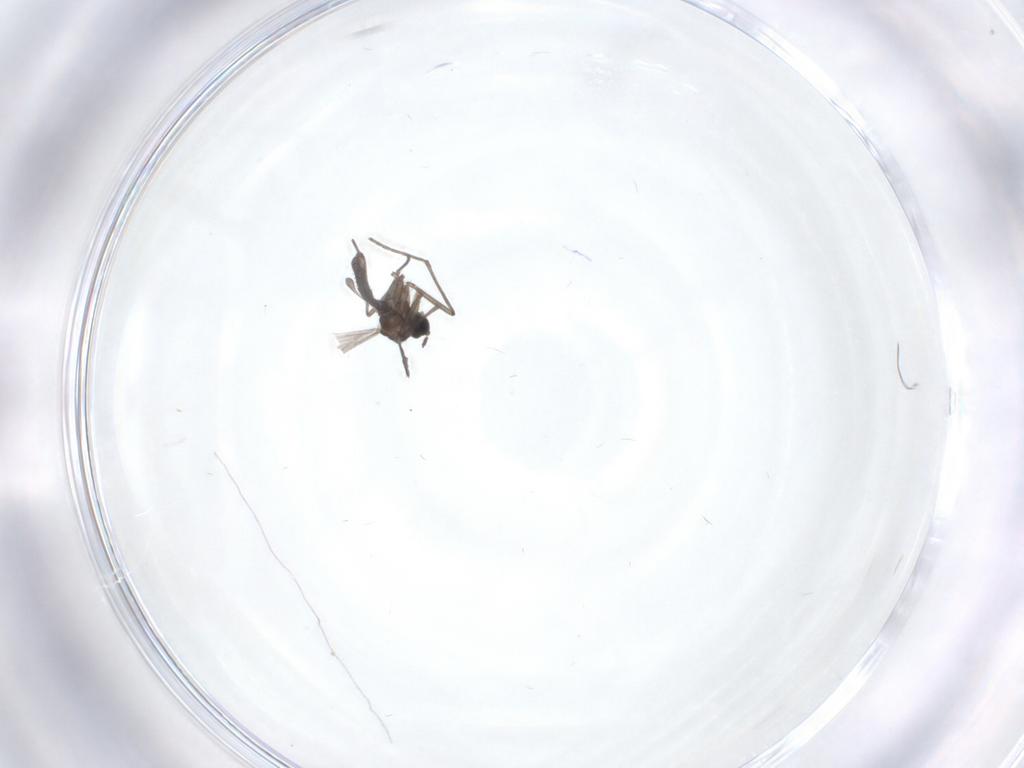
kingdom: Animalia
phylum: Arthropoda
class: Insecta
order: Diptera
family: Sciaridae
